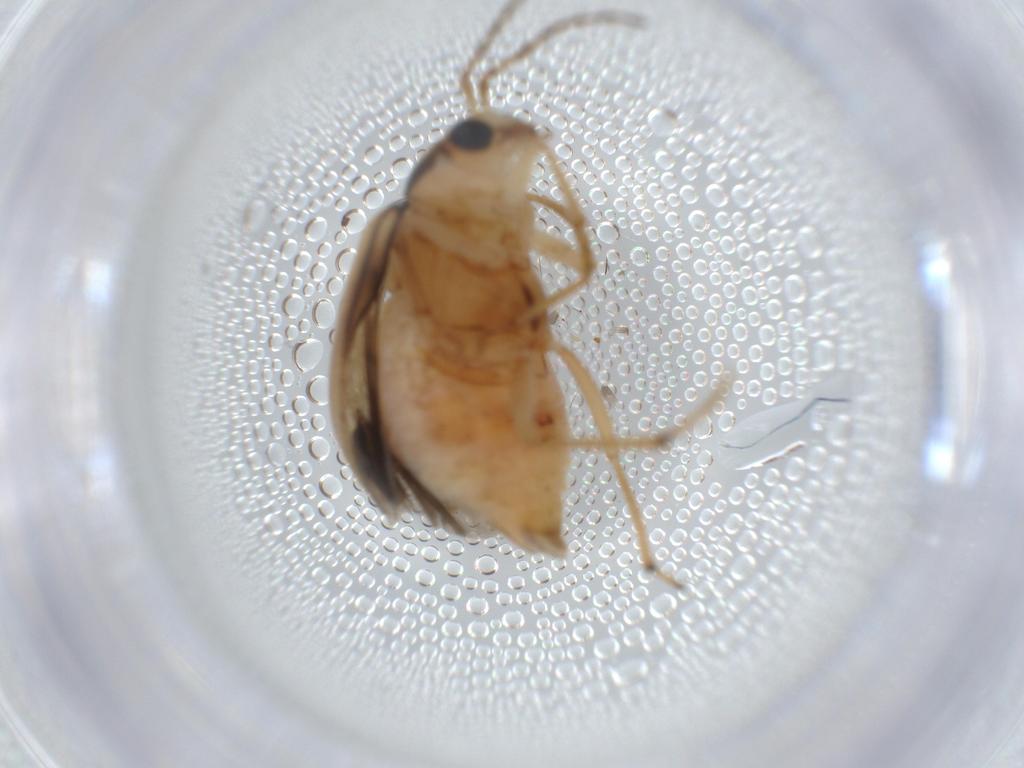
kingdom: Animalia
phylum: Arthropoda
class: Insecta
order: Coleoptera
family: Chrysomelidae
